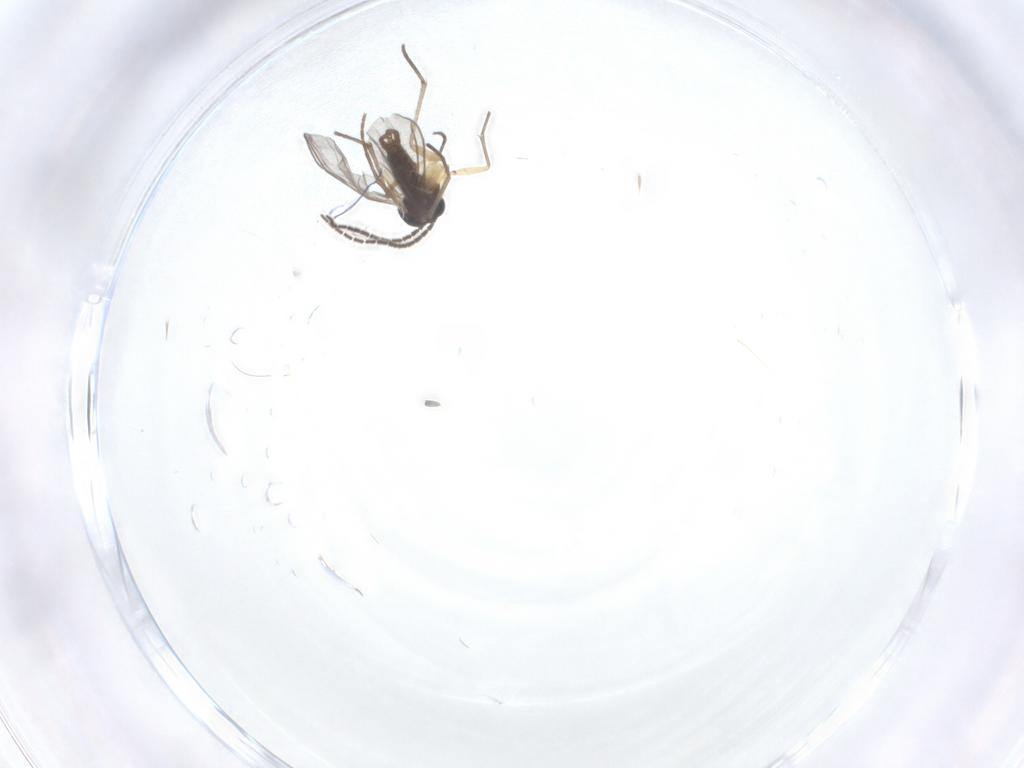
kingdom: Animalia
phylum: Arthropoda
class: Insecta
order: Diptera
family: Sciaridae
